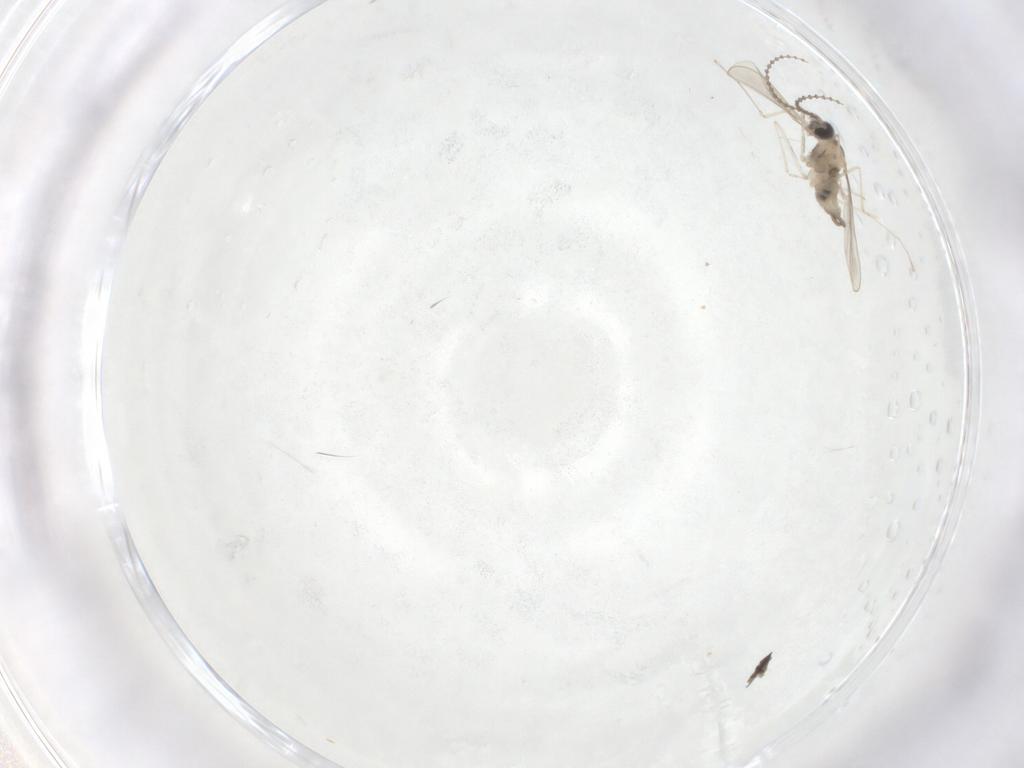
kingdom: Animalia
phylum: Arthropoda
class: Insecta
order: Diptera
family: Cecidomyiidae
